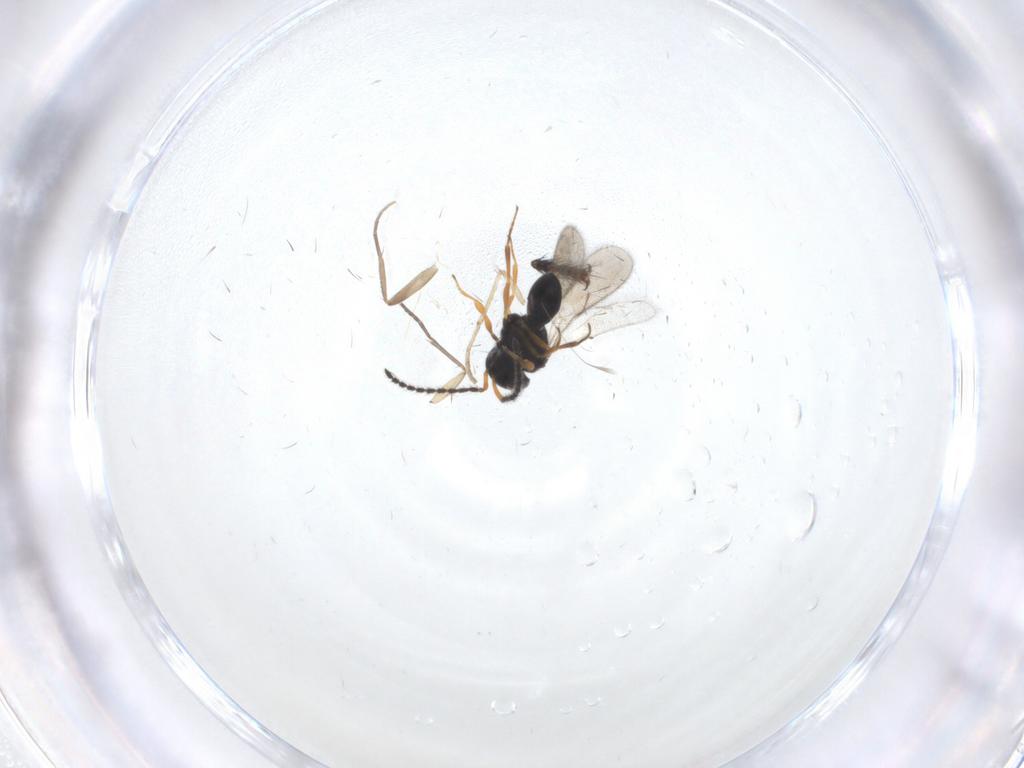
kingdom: Animalia
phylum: Arthropoda
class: Insecta
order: Hymenoptera
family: Scelionidae
